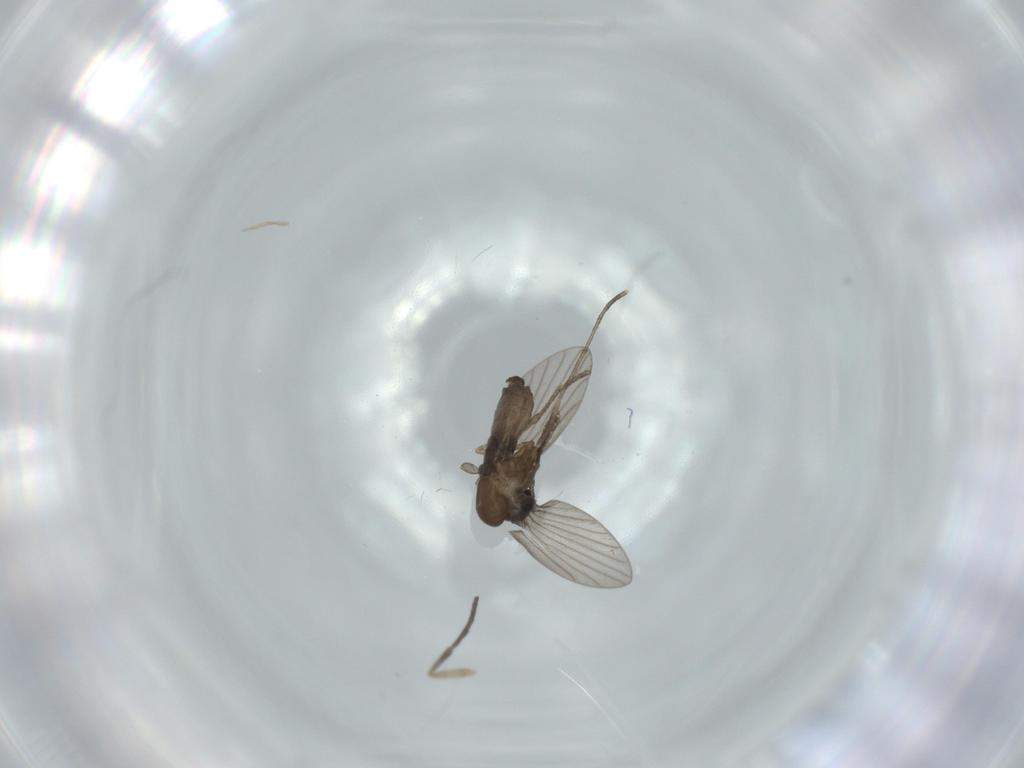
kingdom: Animalia
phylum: Arthropoda
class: Insecta
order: Diptera
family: Psychodidae
